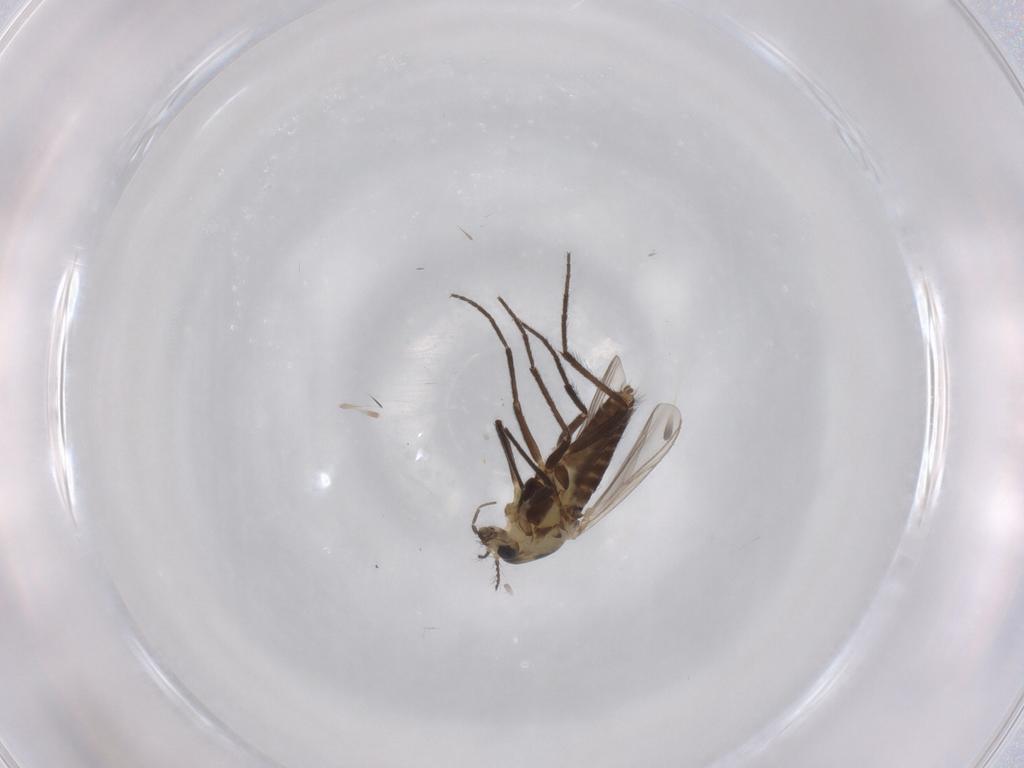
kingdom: Animalia
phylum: Arthropoda
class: Insecta
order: Diptera
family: Chironomidae
